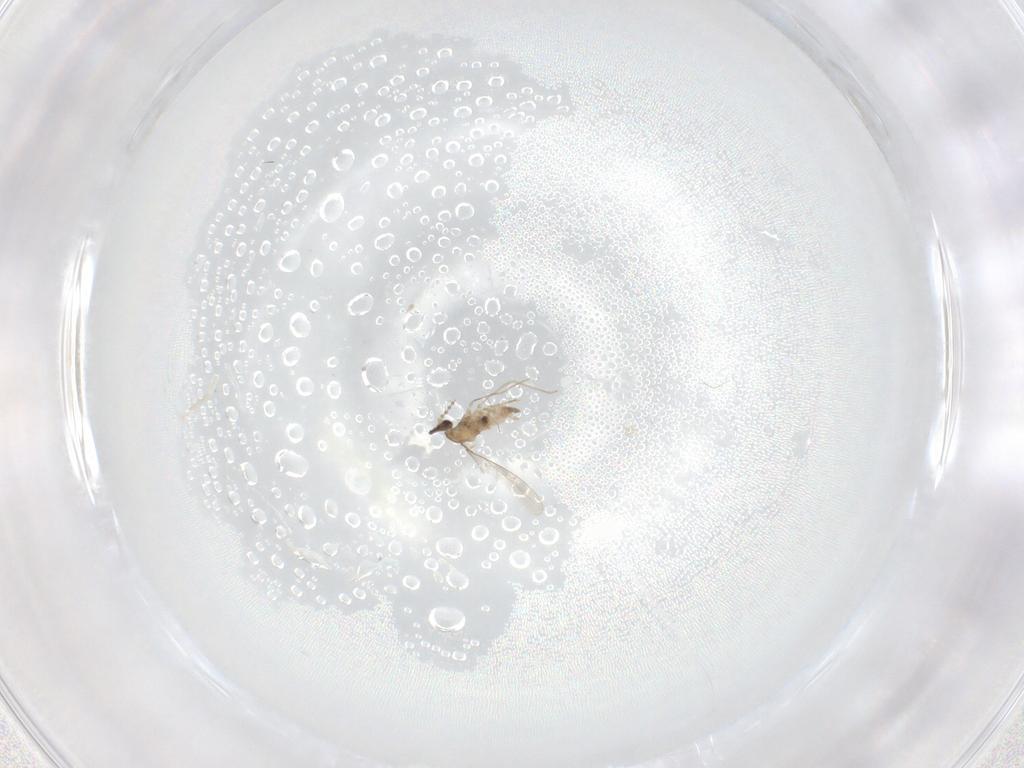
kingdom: Animalia
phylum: Arthropoda
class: Insecta
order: Diptera
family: Cecidomyiidae
